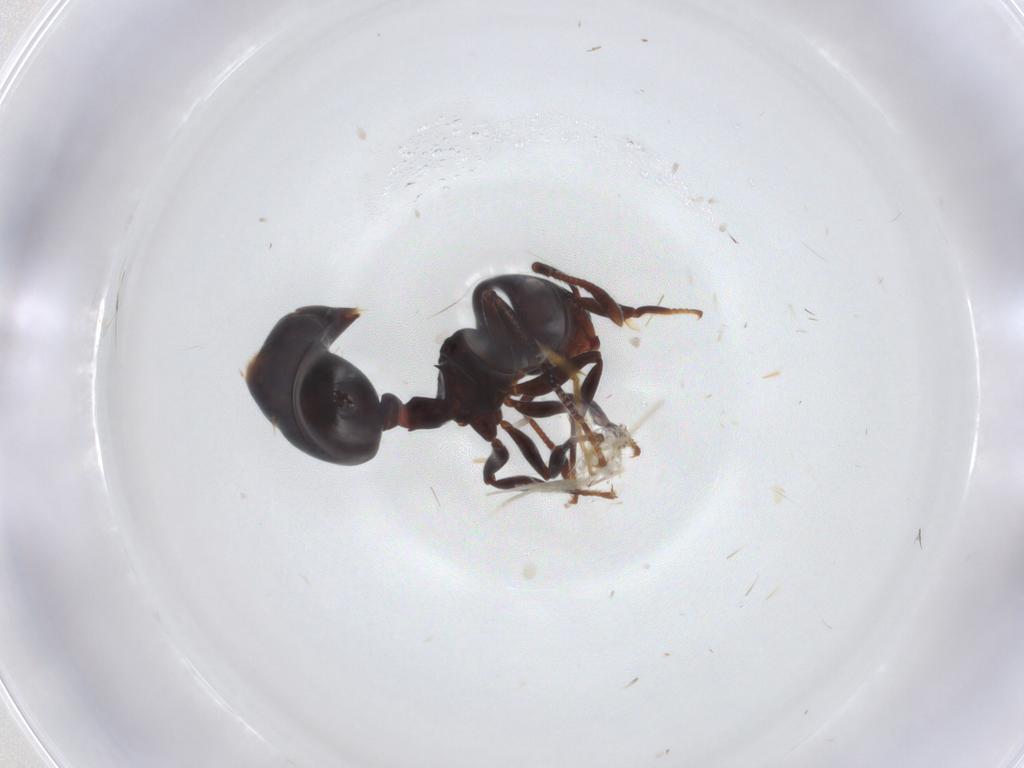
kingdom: Animalia
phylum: Arthropoda
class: Insecta
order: Hymenoptera
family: Formicidae
